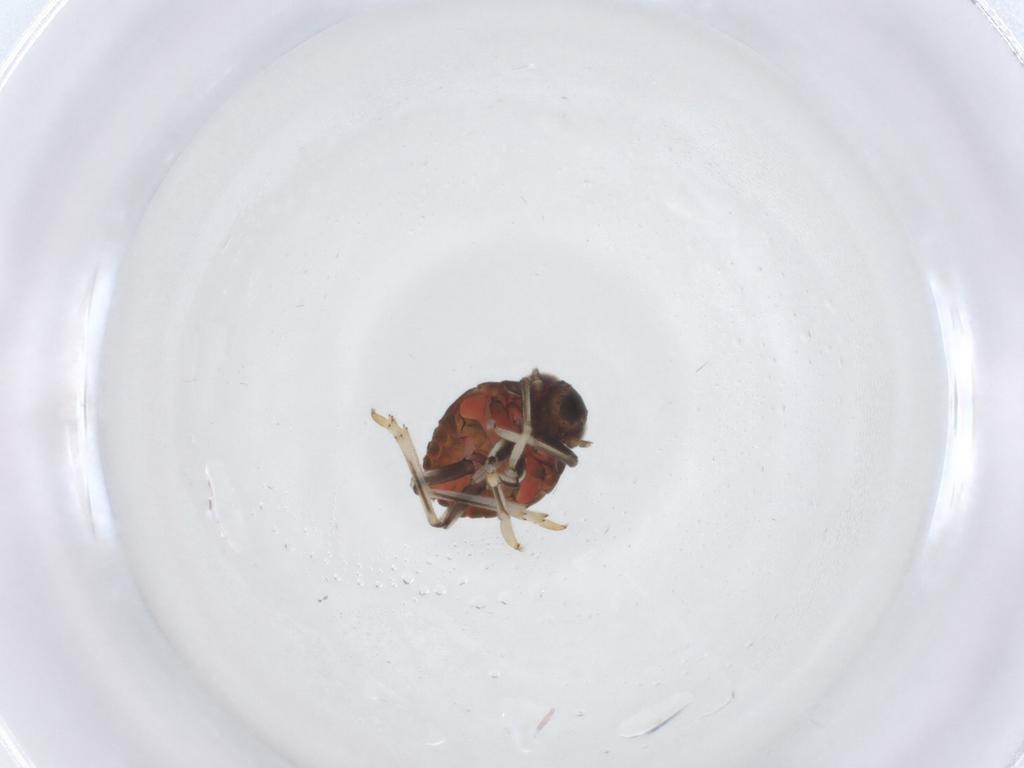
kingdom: Animalia
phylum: Arthropoda
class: Insecta
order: Hemiptera
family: Issidae
